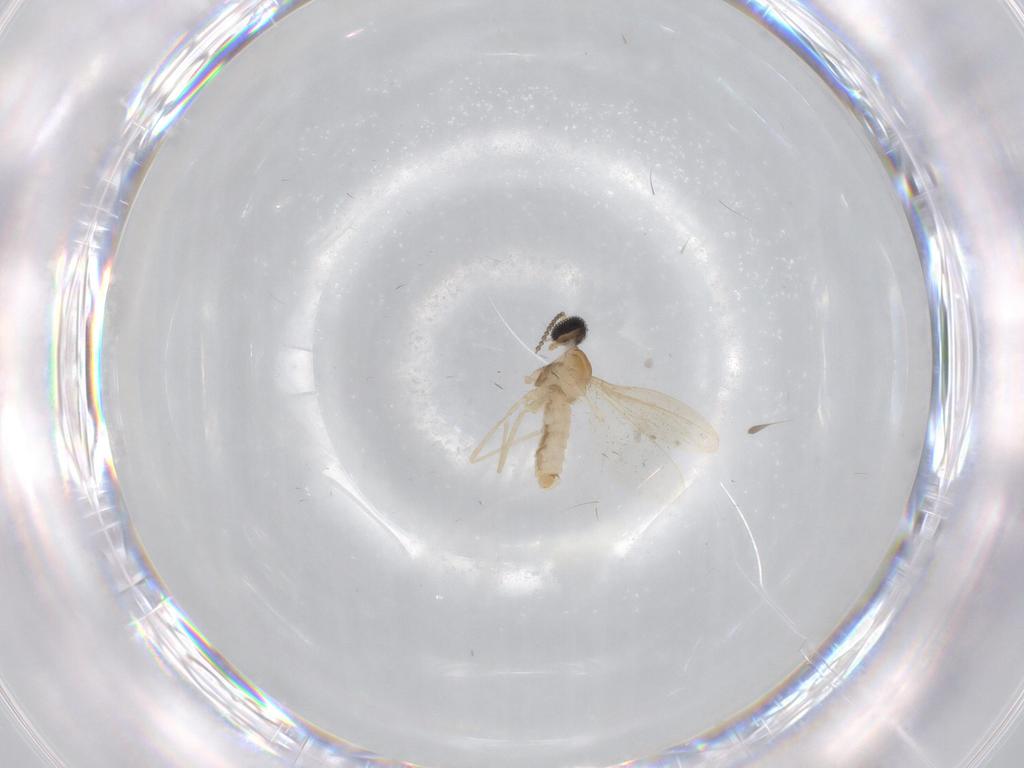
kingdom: Animalia
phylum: Arthropoda
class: Insecta
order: Diptera
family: Cecidomyiidae
